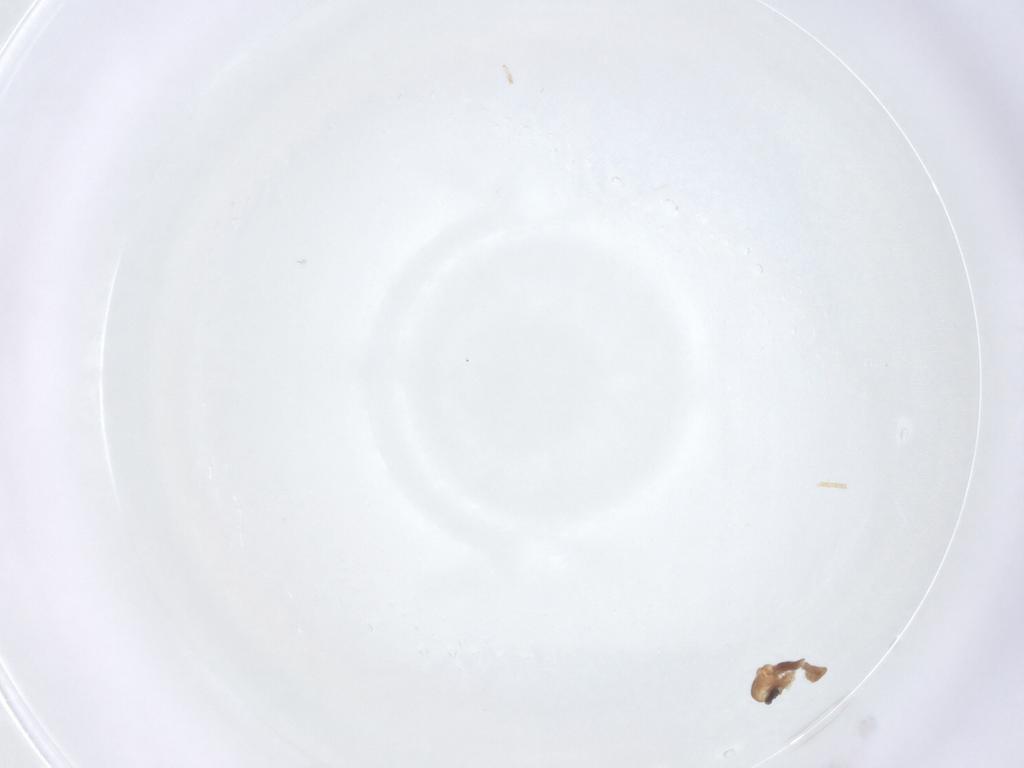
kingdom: Animalia
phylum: Arthropoda
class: Insecta
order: Diptera
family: Cecidomyiidae
